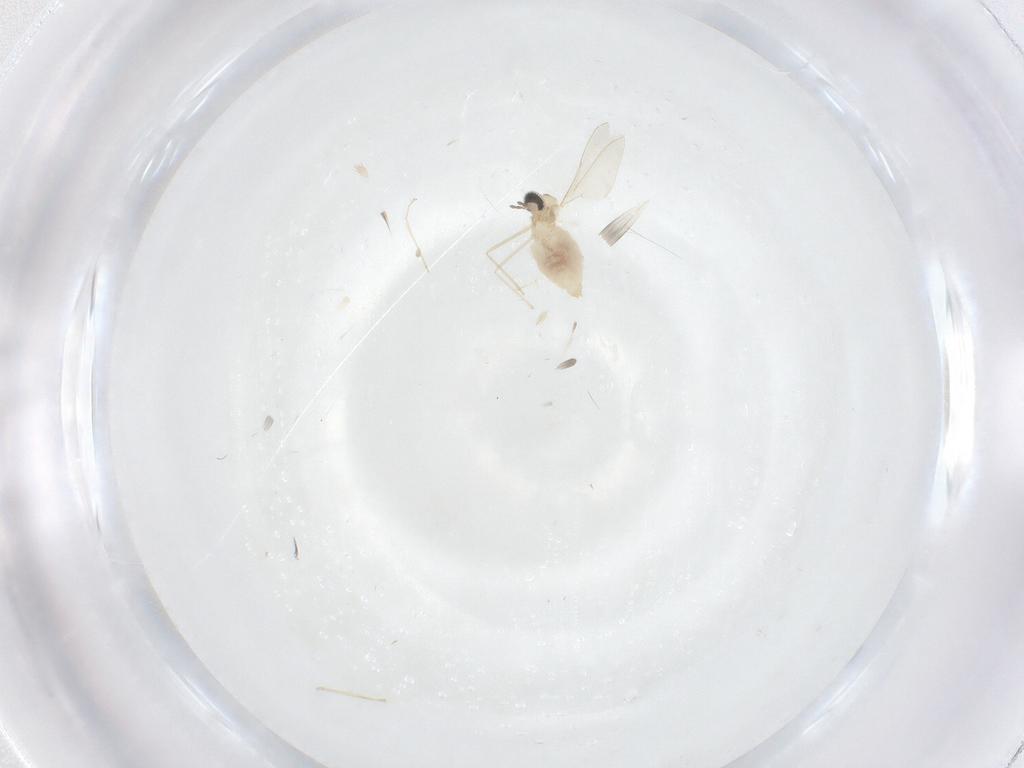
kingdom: Animalia
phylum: Arthropoda
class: Insecta
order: Diptera
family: Cecidomyiidae
